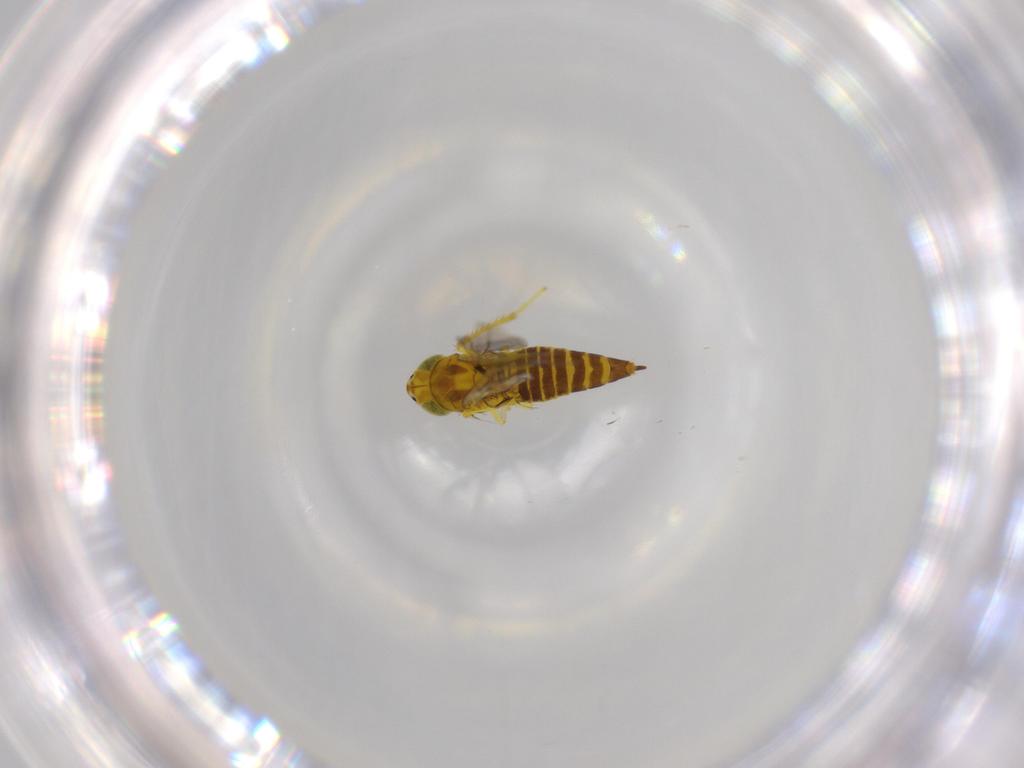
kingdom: Animalia
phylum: Arthropoda
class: Insecta
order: Hemiptera
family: Cicadellidae
